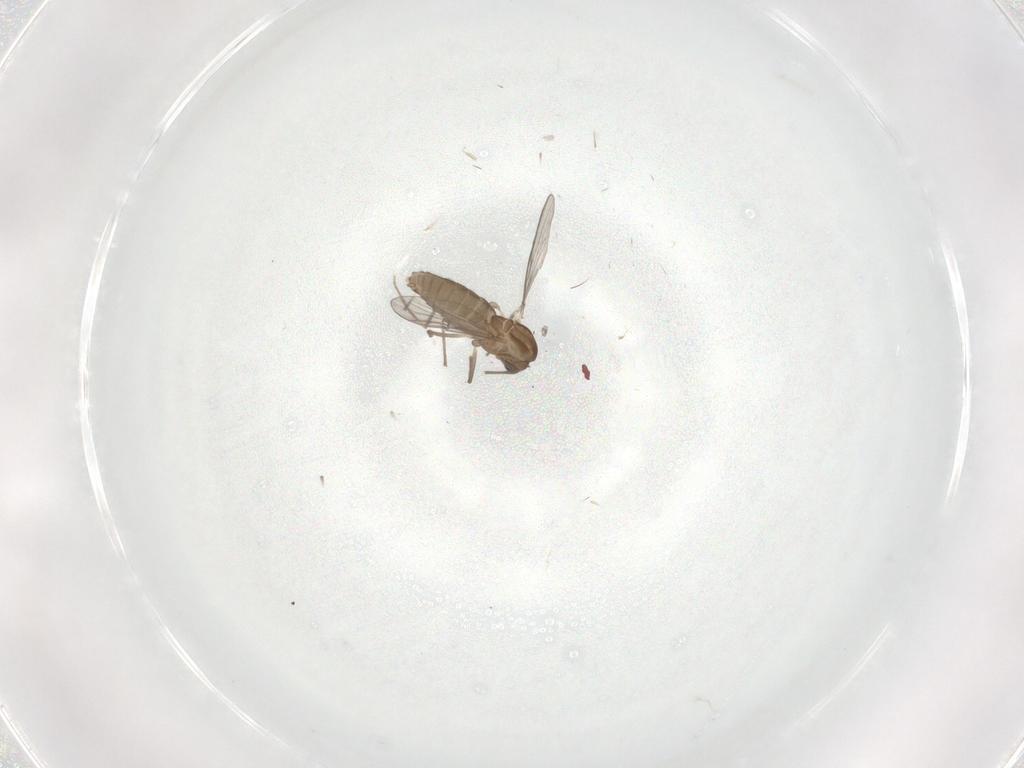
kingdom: Animalia
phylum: Arthropoda
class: Insecta
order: Diptera
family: Chironomidae
